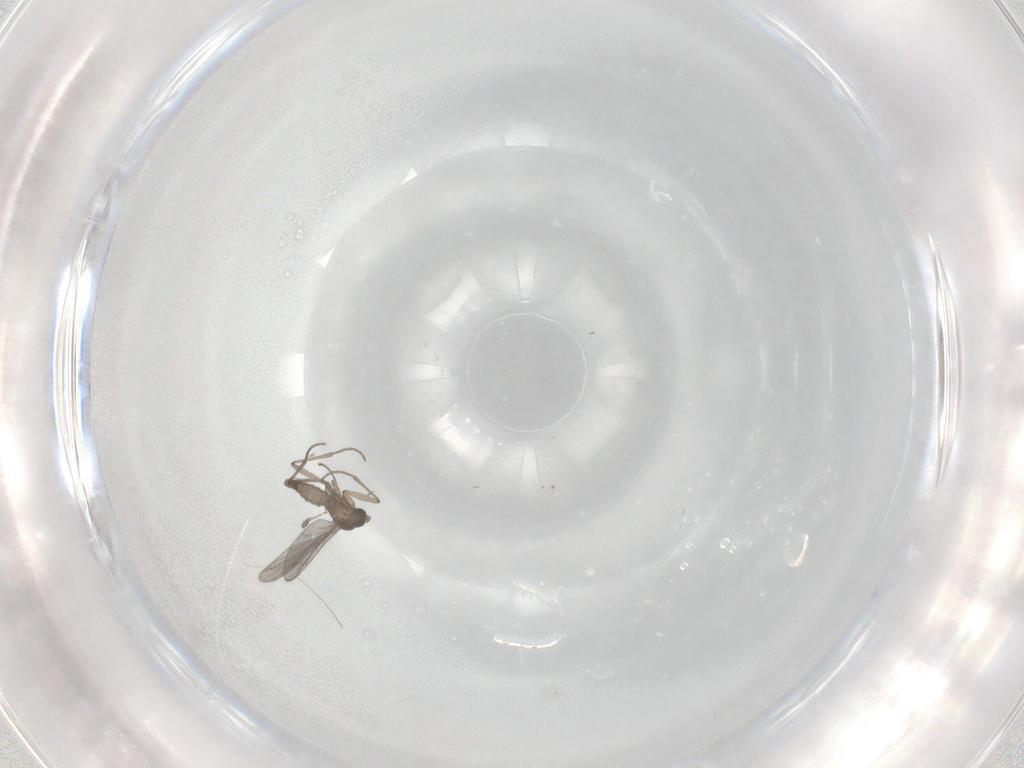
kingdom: Animalia
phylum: Arthropoda
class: Insecta
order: Diptera
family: Sciaridae
